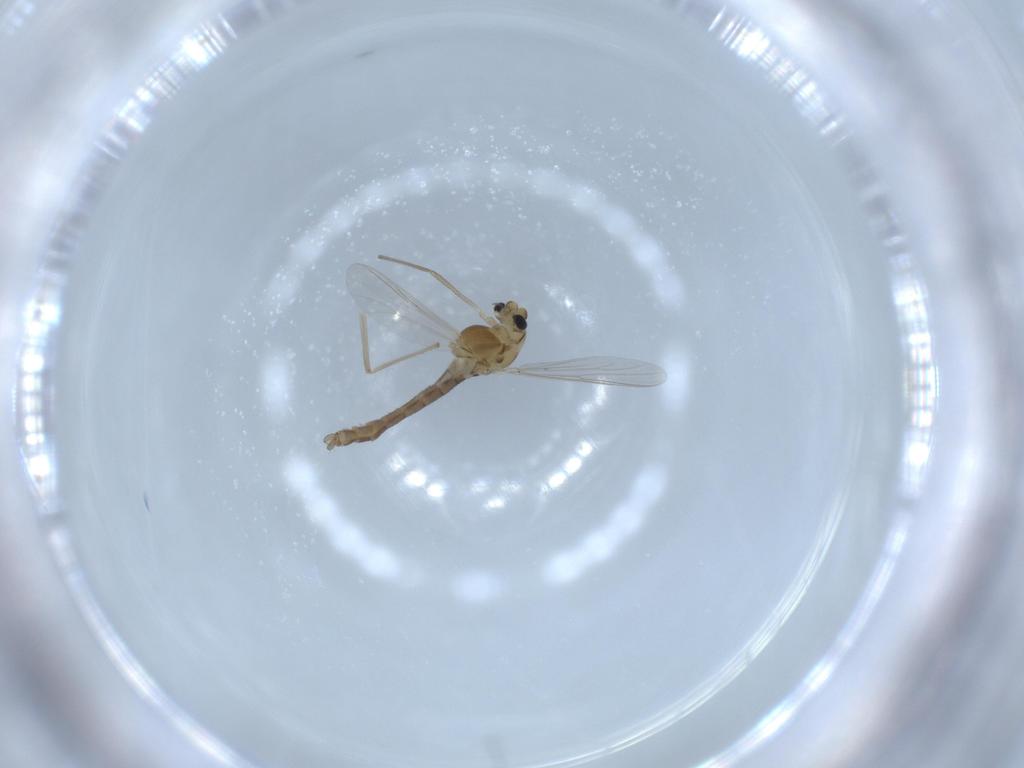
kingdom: Animalia
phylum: Arthropoda
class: Insecta
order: Diptera
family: Chironomidae
